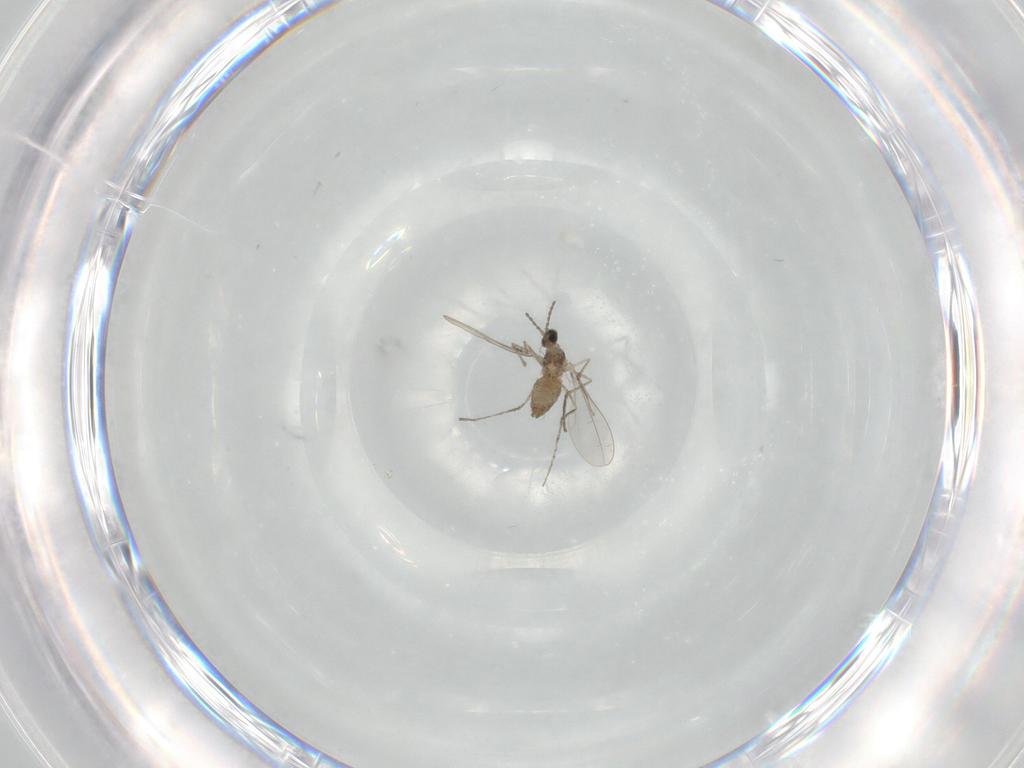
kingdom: Animalia
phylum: Arthropoda
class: Insecta
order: Diptera
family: Cecidomyiidae
